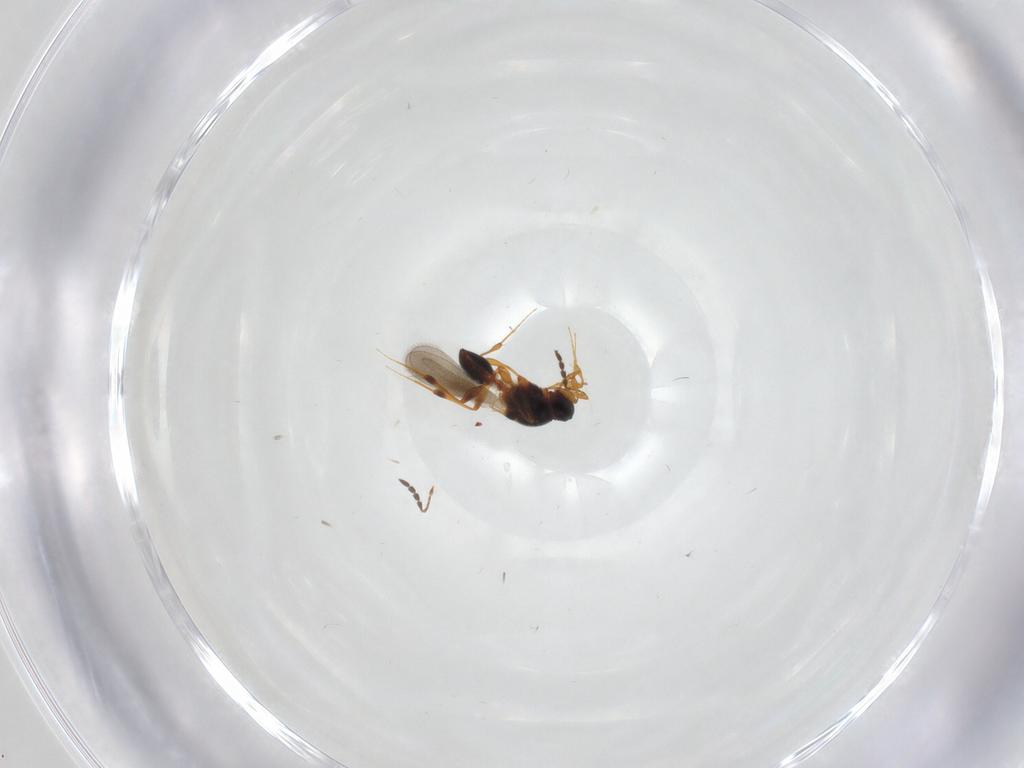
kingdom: Animalia
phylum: Arthropoda
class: Insecta
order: Hymenoptera
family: Platygastridae
